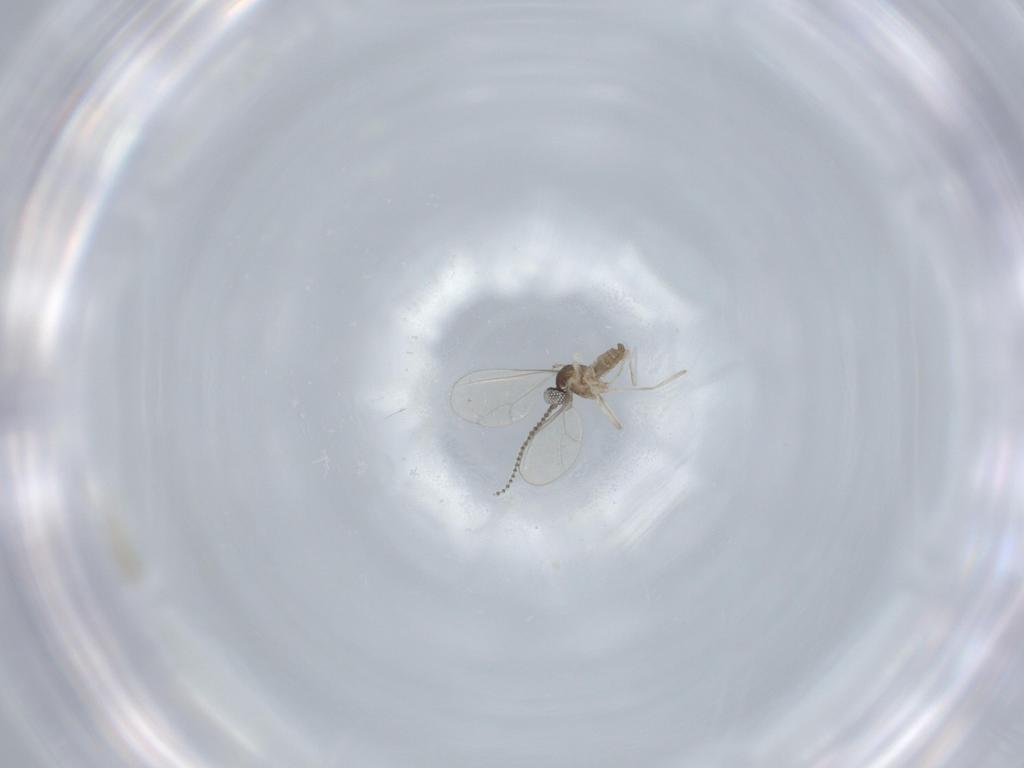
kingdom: Animalia
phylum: Arthropoda
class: Insecta
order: Diptera
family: Cecidomyiidae
